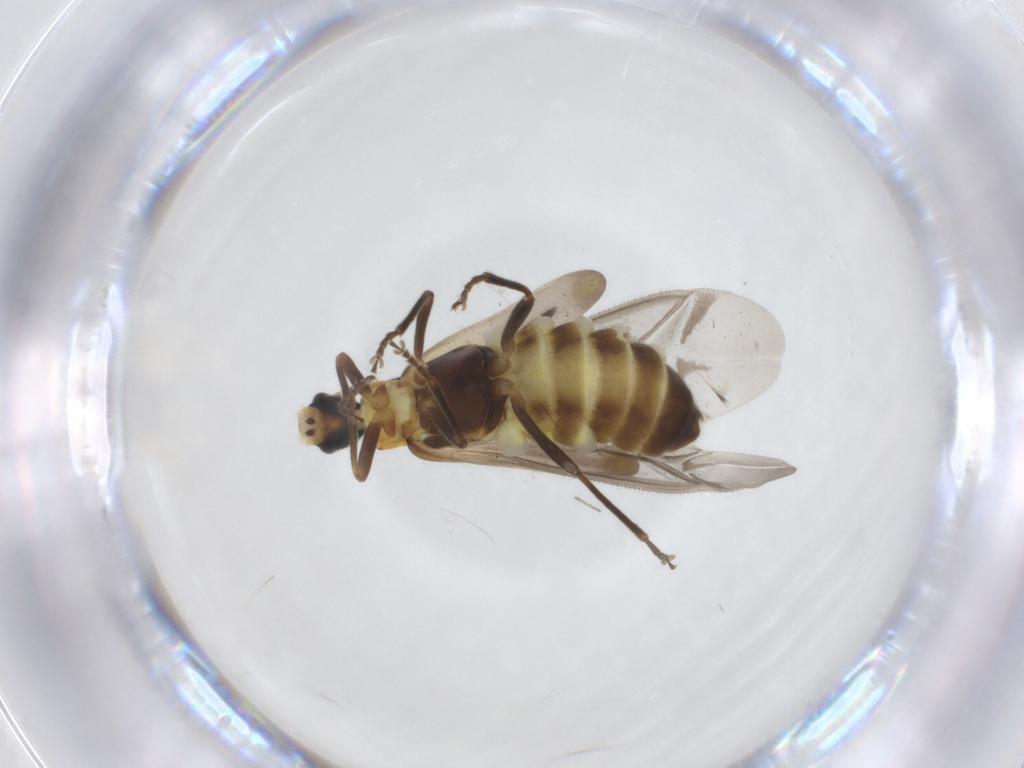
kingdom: Animalia
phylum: Arthropoda
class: Insecta
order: Coleoptera
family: Cantharidae
